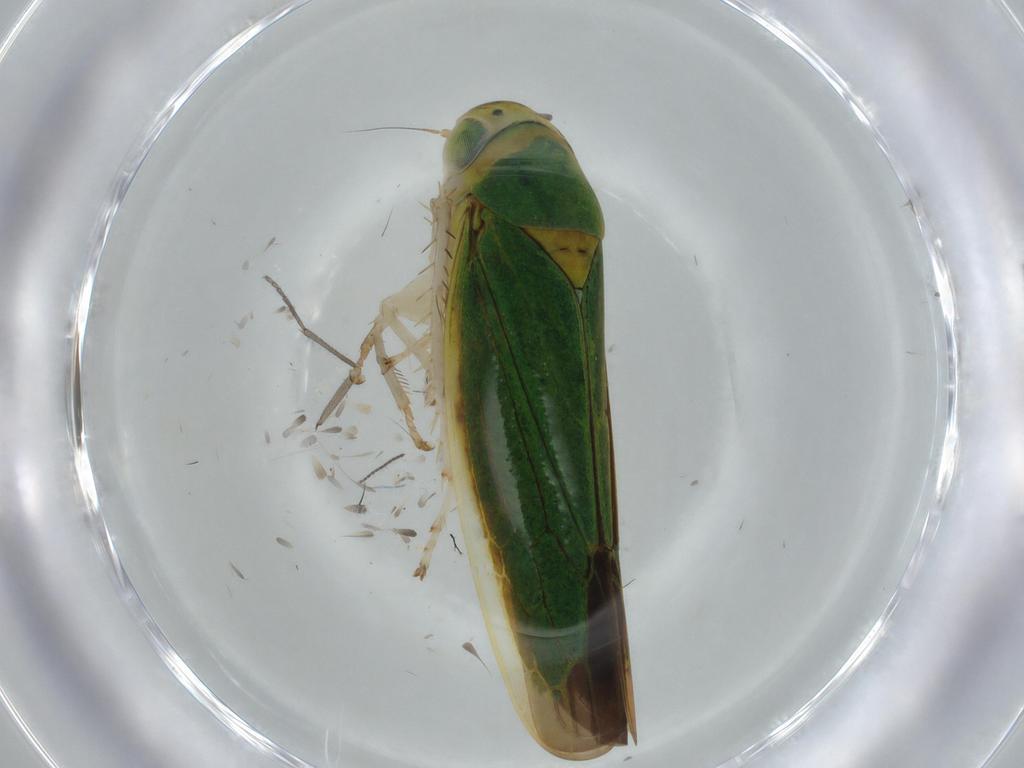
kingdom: Animalia
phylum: Arthropoda
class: Insecta
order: Hemiptera
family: Cicadellidae
